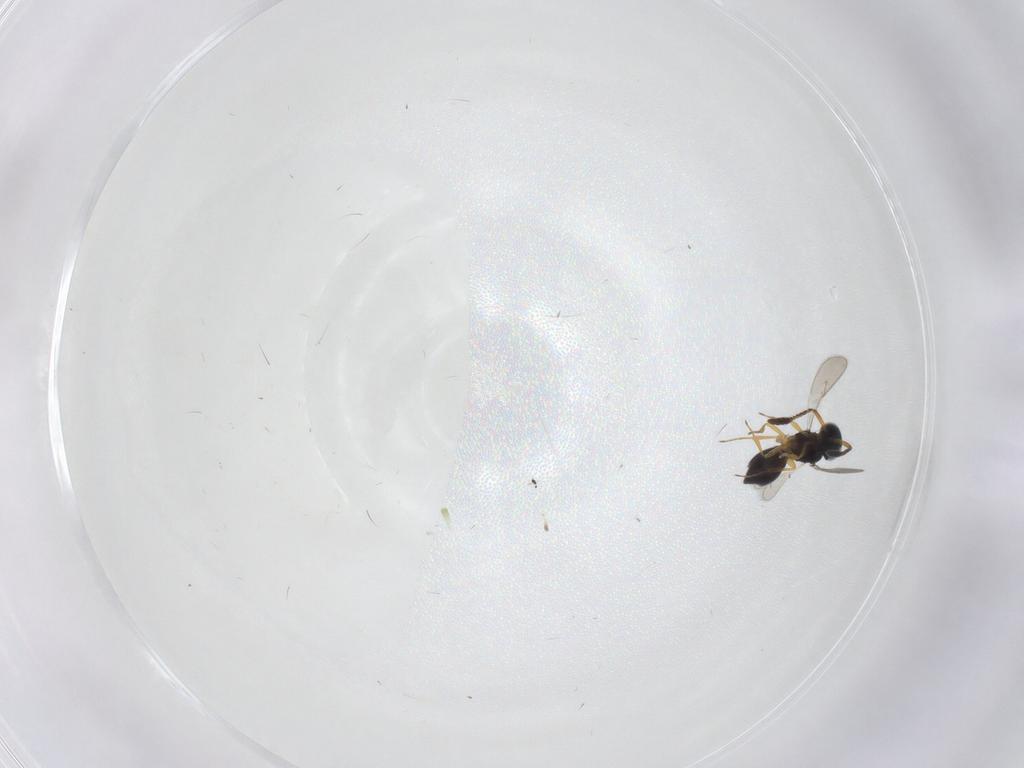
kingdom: Animalia
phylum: Arthropoda
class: Insecta
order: Hymenoptera
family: Scelionidae
